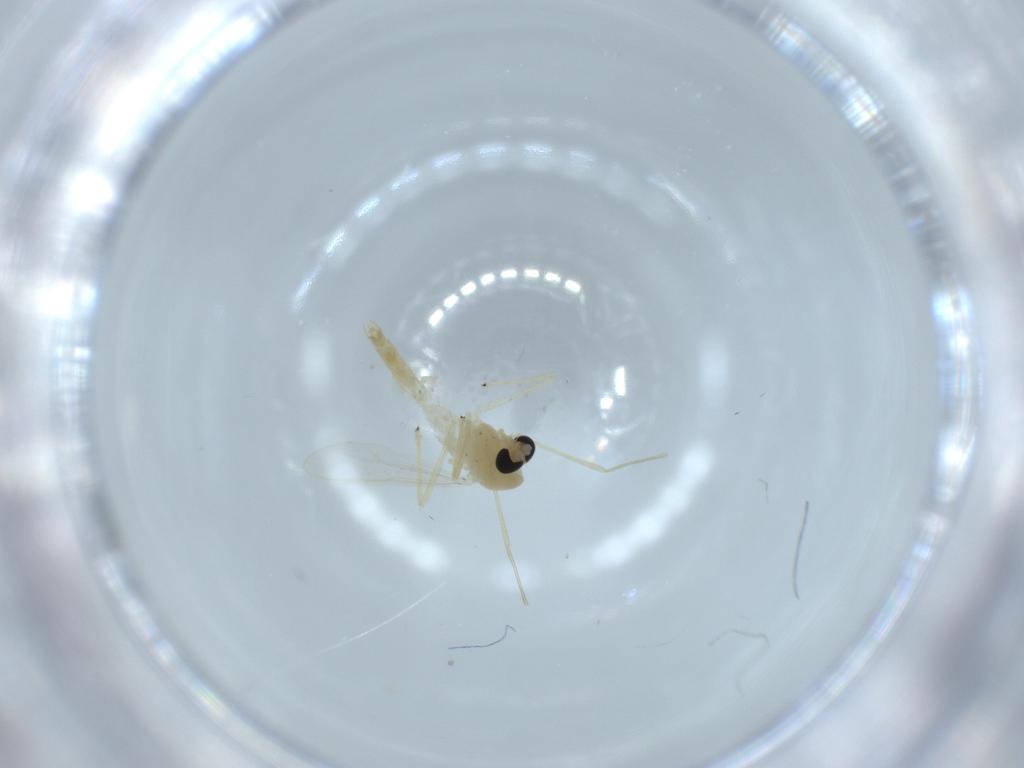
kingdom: Animalia
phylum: Arthropoda
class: Insecta
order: Diptera
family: Chironomidae
